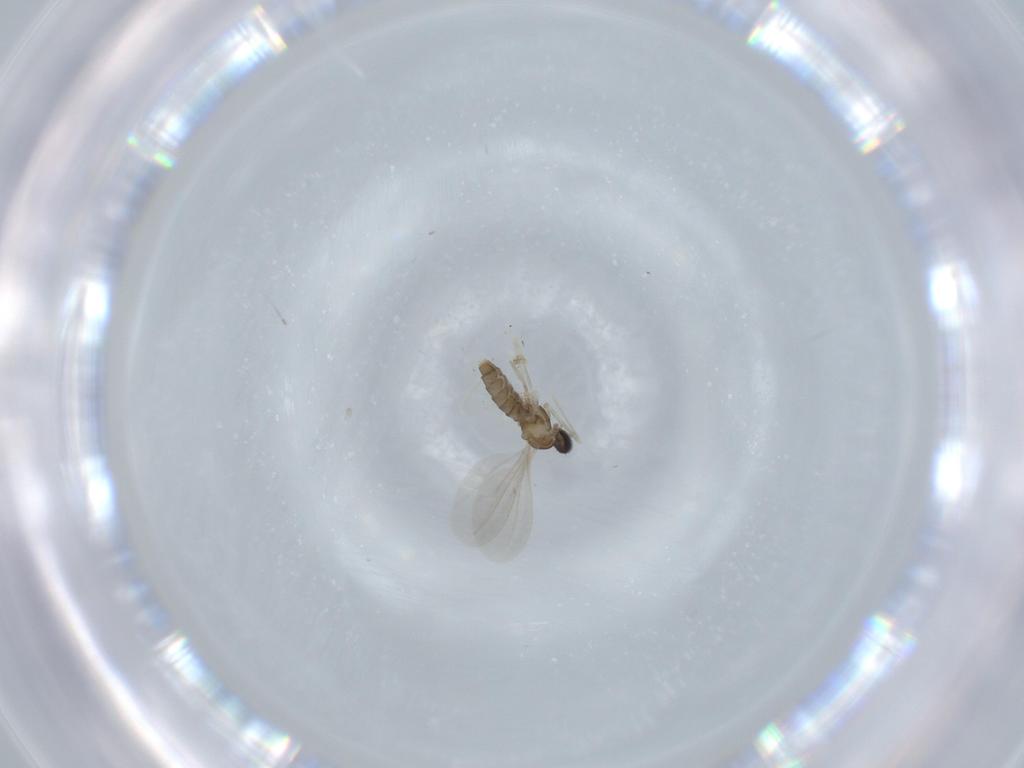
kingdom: Animalia
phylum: Arthropoda
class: Insecta
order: Diptera
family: Cecidomyiidae
